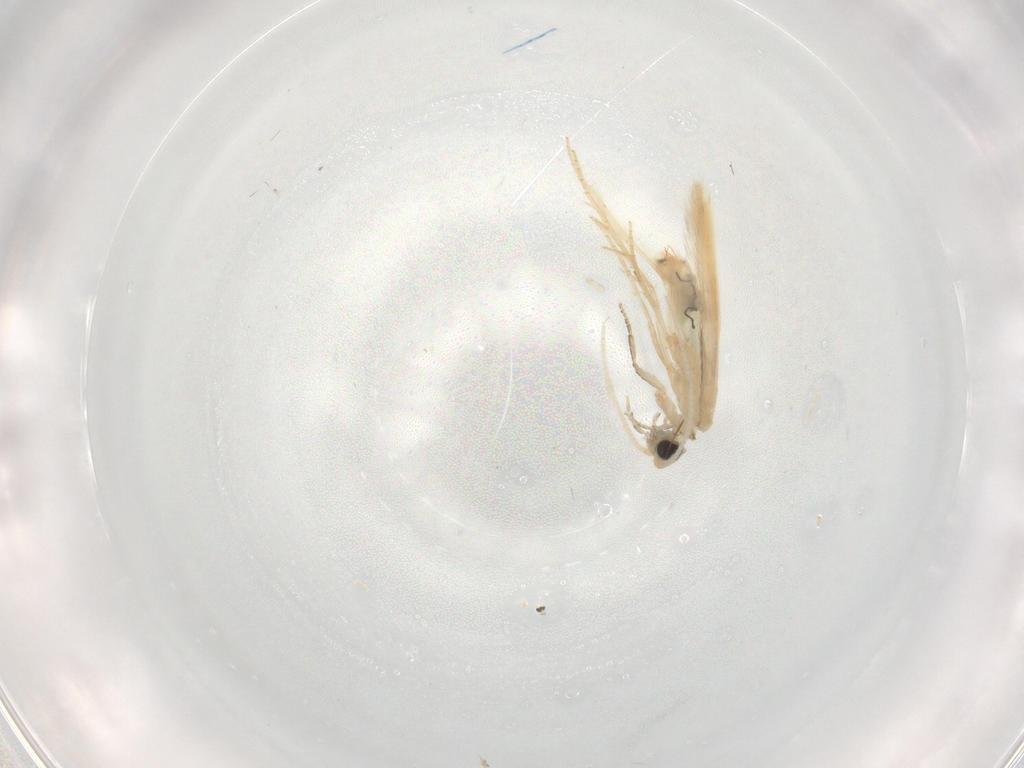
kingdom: Animalia
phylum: Arthropoda
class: Insecta
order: Trichoptera
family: Hydroptilidae
